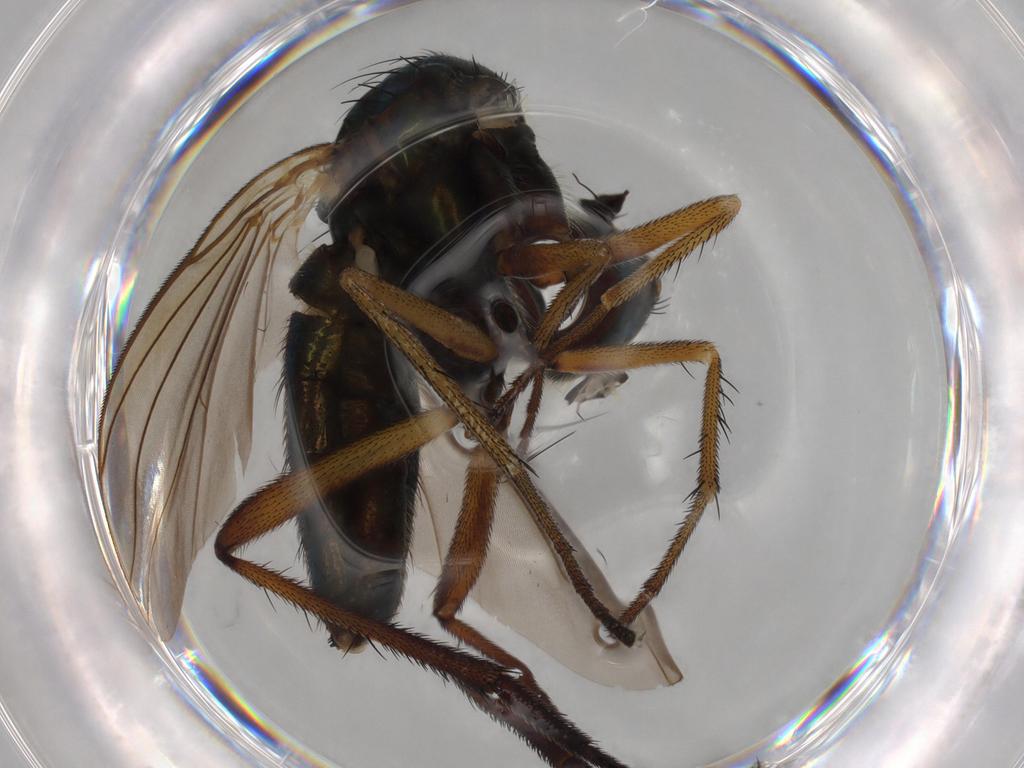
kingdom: Animalia
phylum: Arthropoda
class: Insecta
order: Diptera
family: Dolichopodidae
